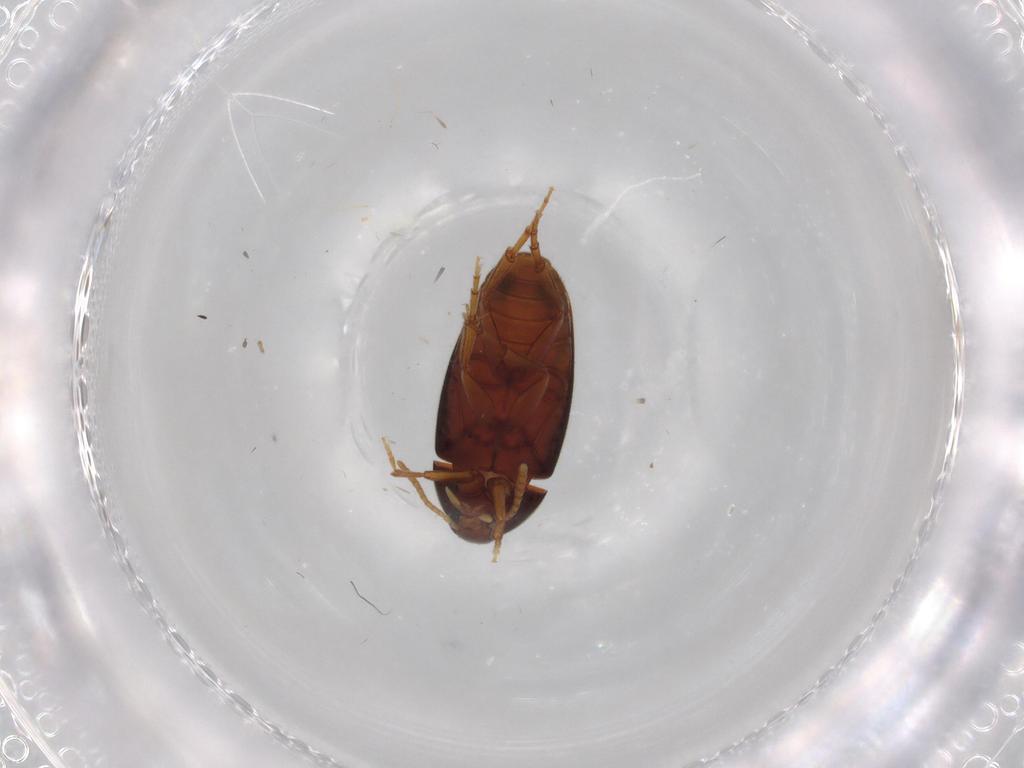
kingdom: Animalia
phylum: Arthropoda
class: Insecta
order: Coleoptera
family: Scraptiidae
